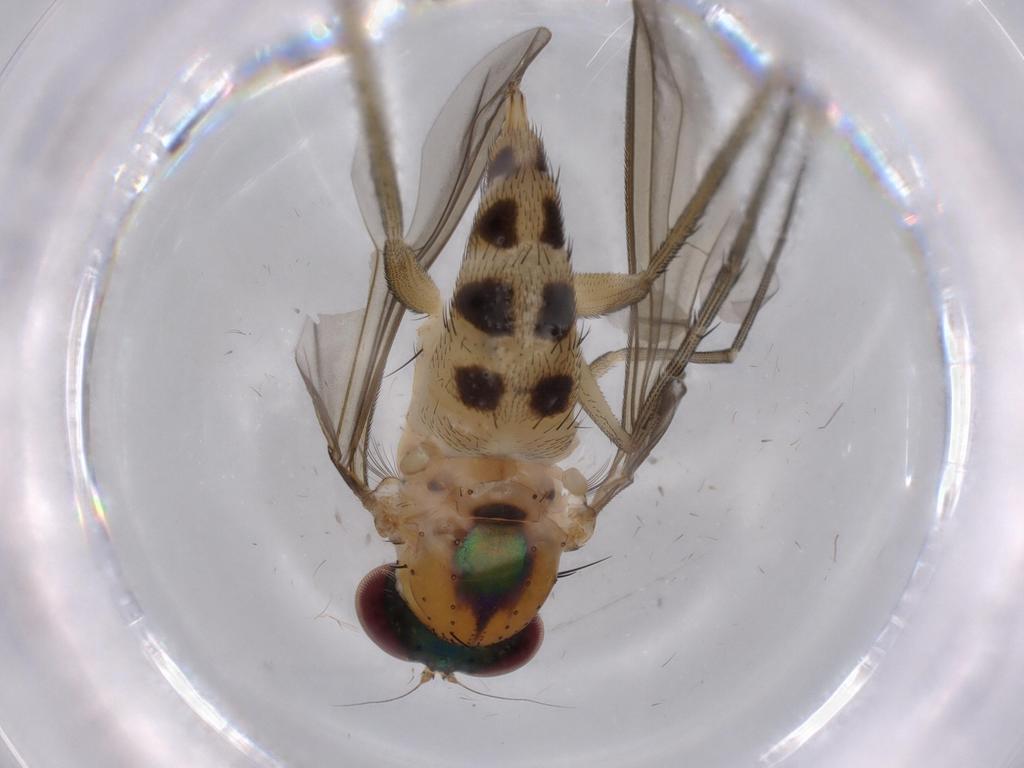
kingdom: Animalia
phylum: Arthropoda
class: Insecta
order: Diptera
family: Dolichopodidae
